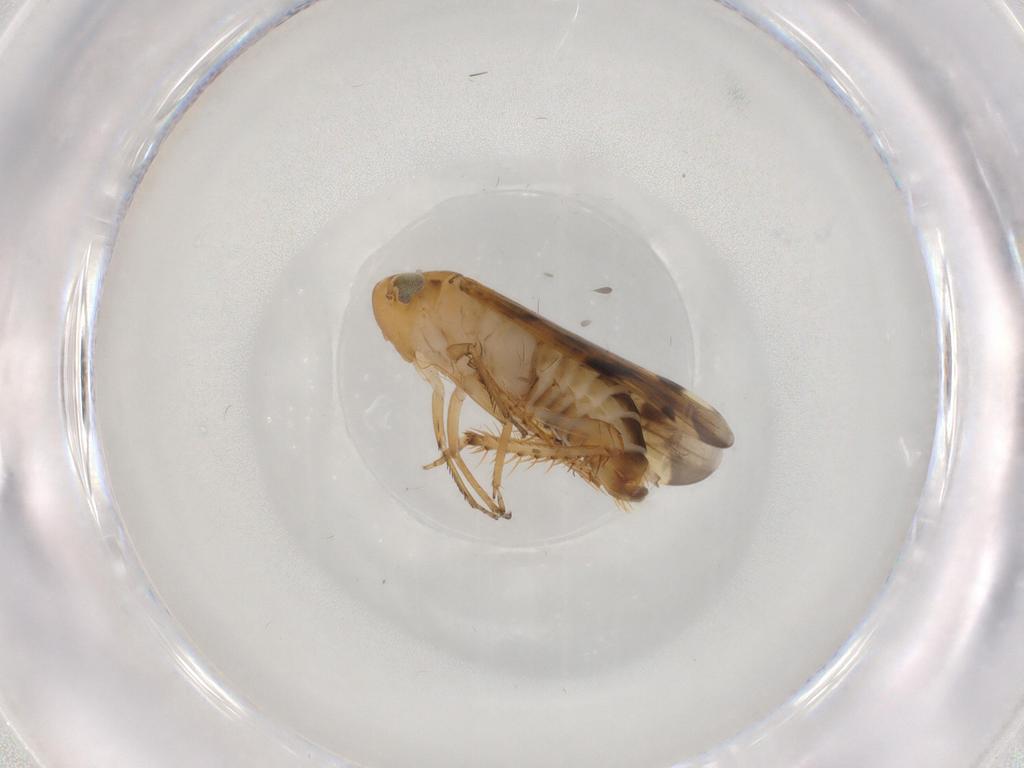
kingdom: Animalia
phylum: Arthropoda
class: Insecta
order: Hemiptera
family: Cicadellidae
